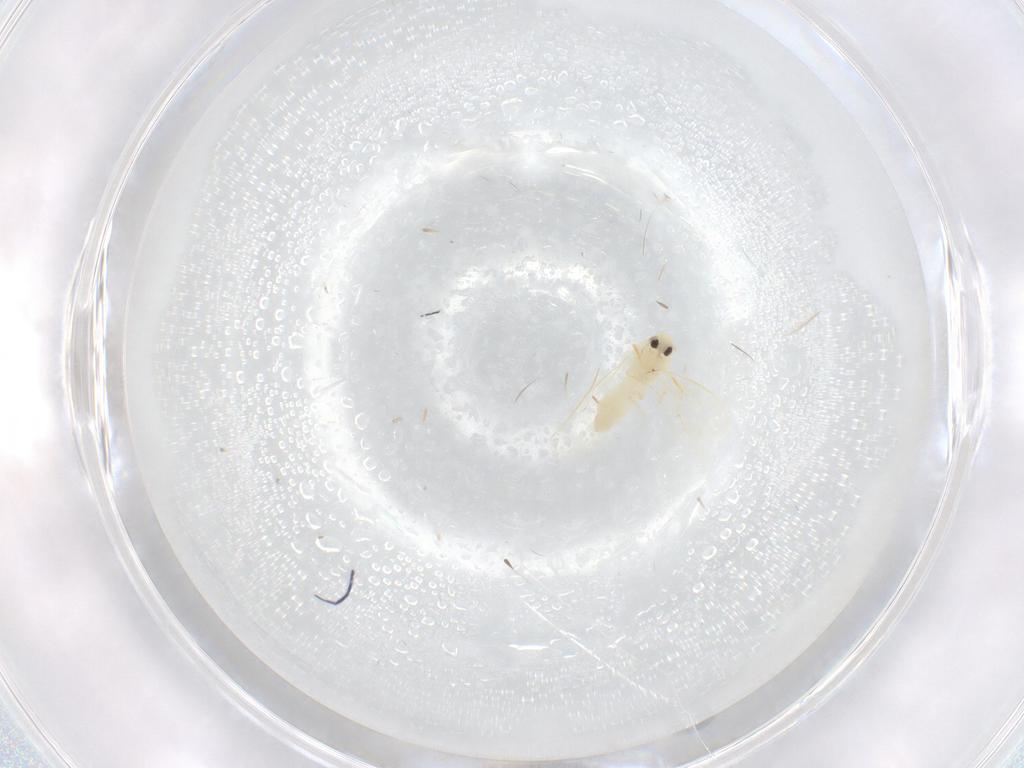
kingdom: Animalia
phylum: Arthropoda
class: Insecta
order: Hemiptera
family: Aleyrodidae
